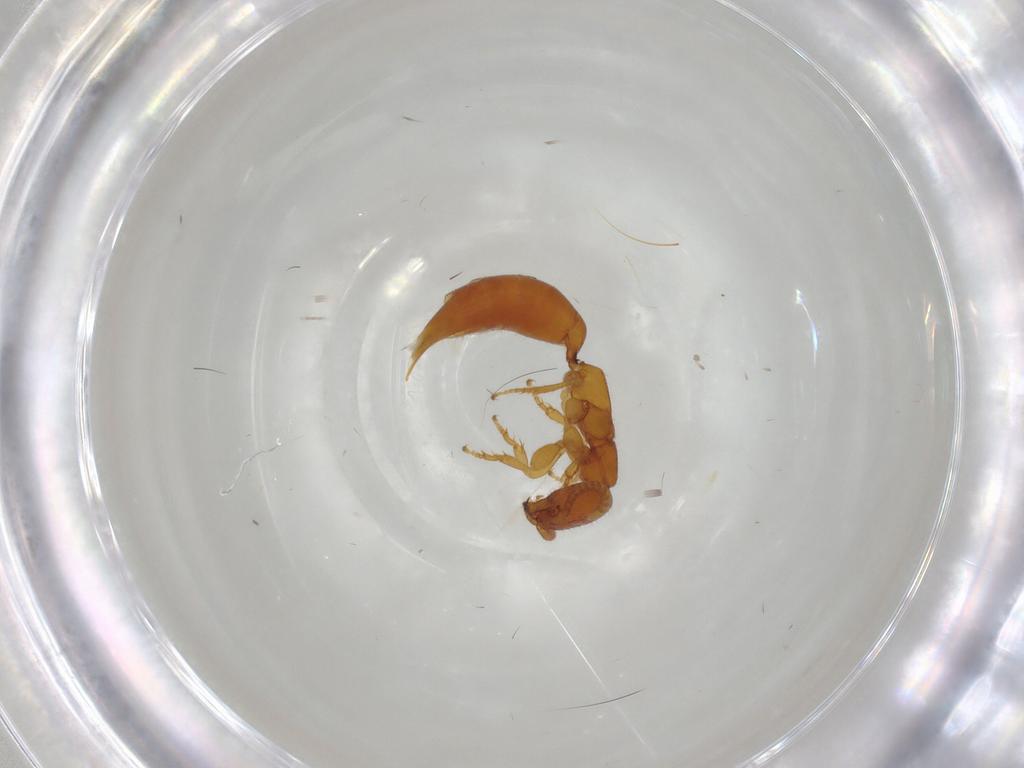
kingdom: Animalia
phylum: Arthropoda
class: Insecta
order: Hymenoptera
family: Bethylidae
